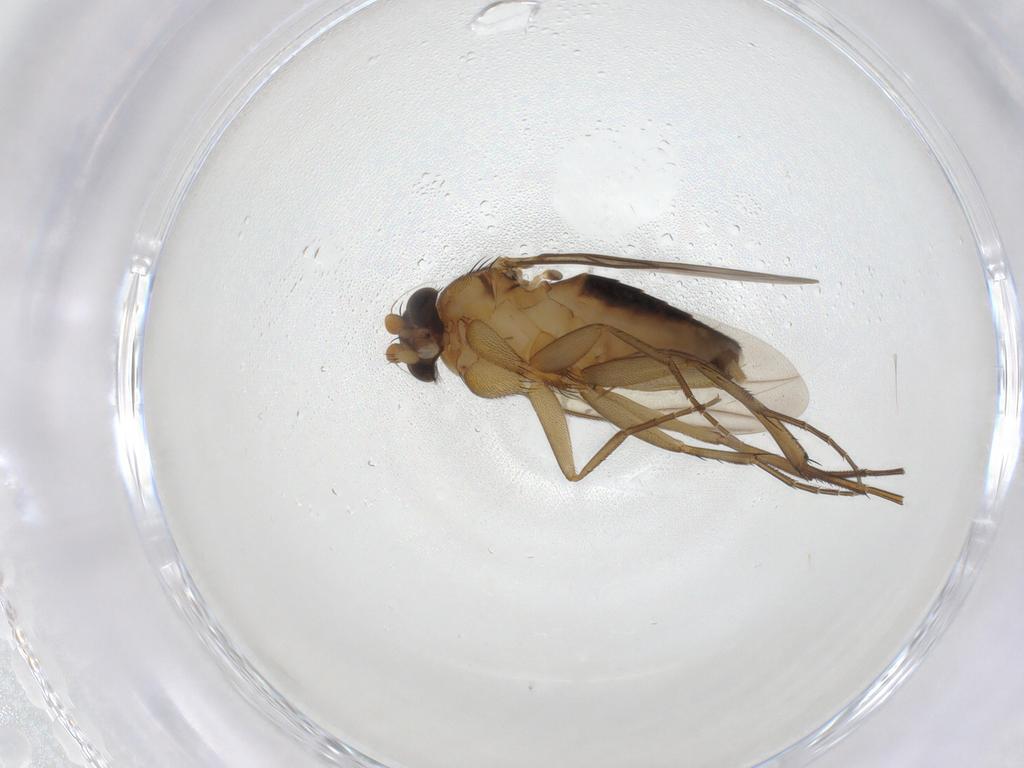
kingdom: Animalia
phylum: Arthropoda
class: Insecta
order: Diptera
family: Phoridae
